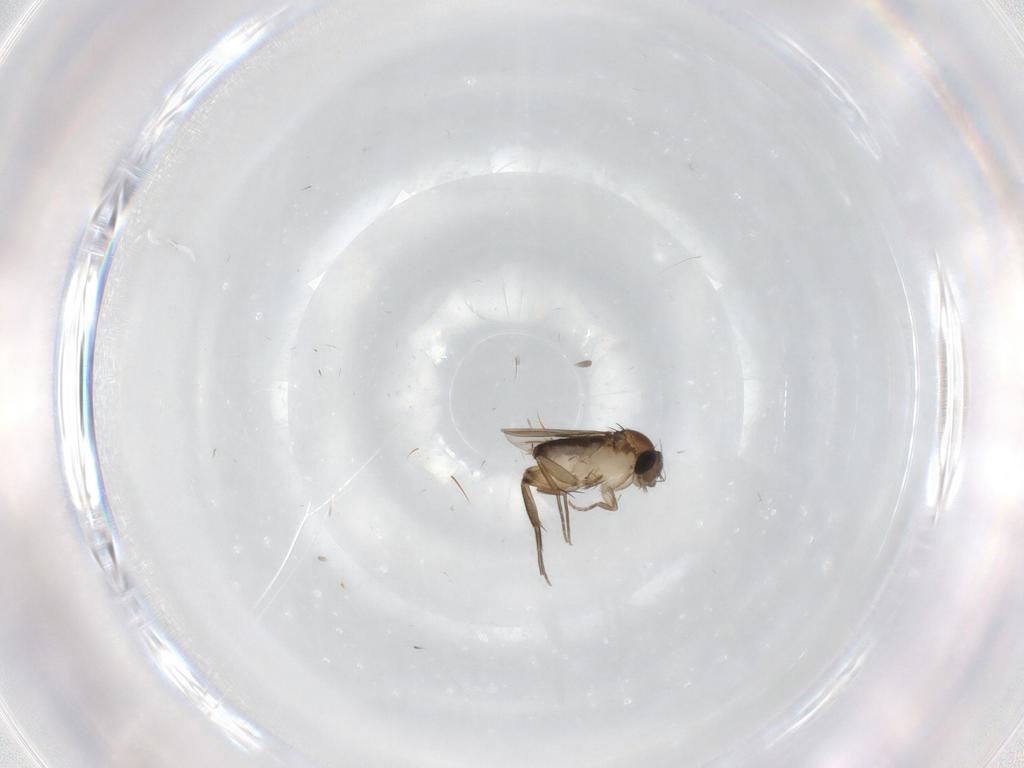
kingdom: Animalia
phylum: Arthropoda
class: Insecta
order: Diptera
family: Phoridae
